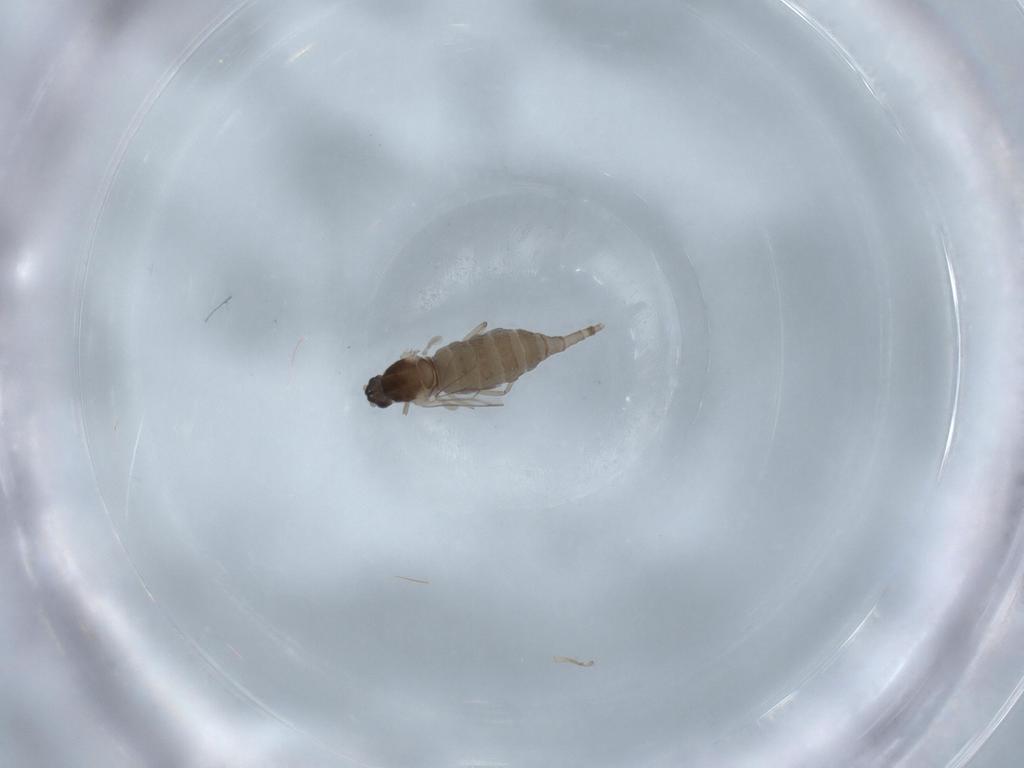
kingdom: Animalia
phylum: Arthropoda
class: Insecta
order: Diptera
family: Cecidomyiidae
